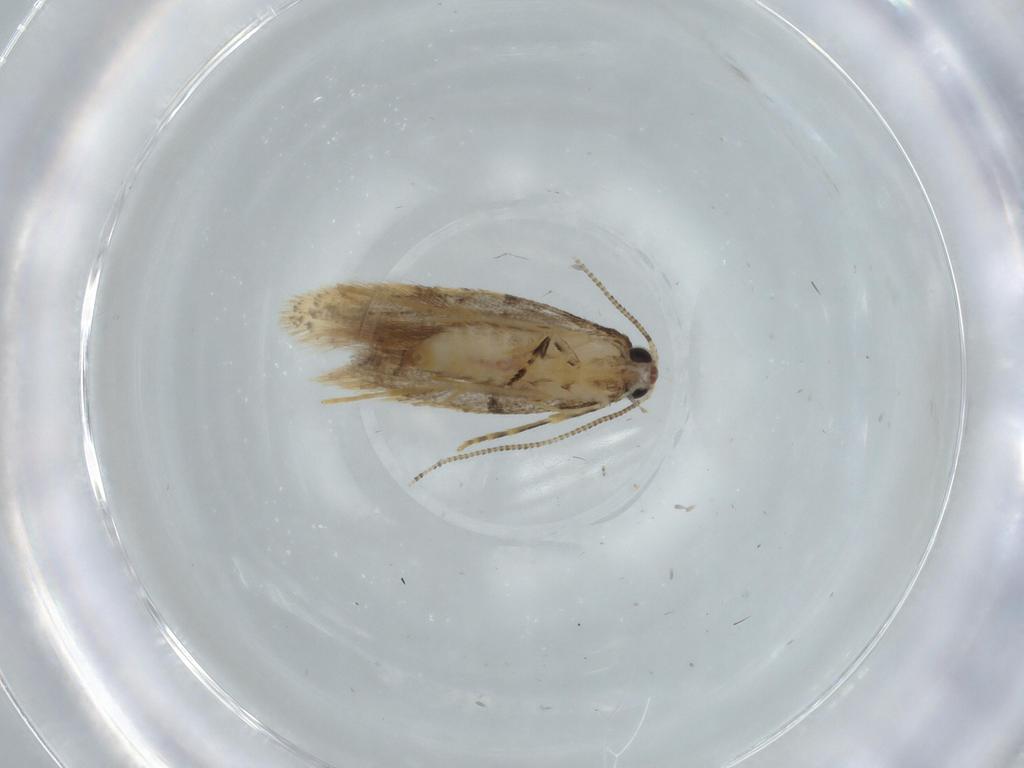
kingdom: Animalia
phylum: Arthropoda
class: Insecta
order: Lepidoptera
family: Tineidae
